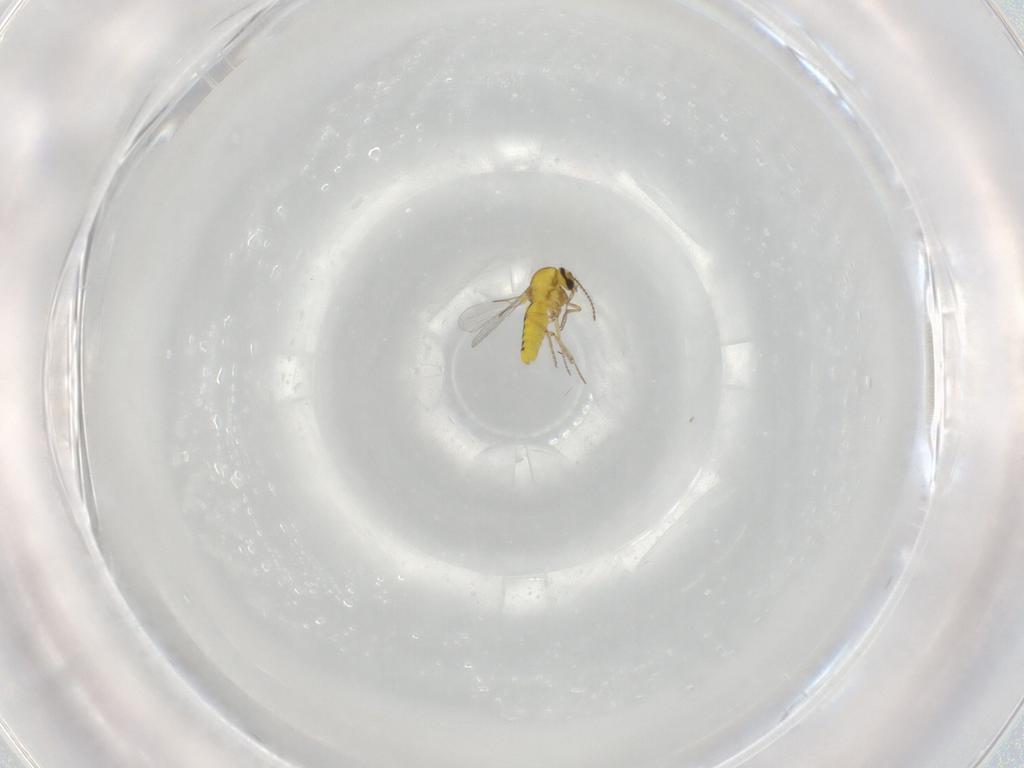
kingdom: Animalia
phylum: Arthropoda
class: Insecta
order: Diptera
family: Ceratopogonidae
